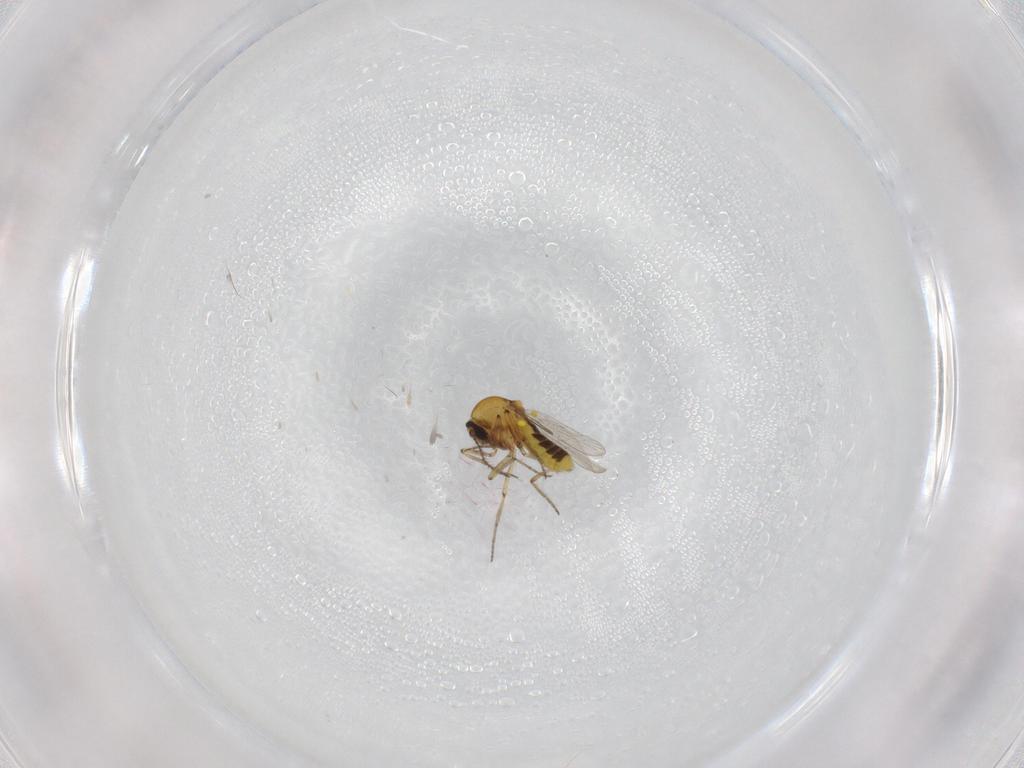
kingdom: Animalia
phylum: Arthropoda
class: Insecta
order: Diptera
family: Ceratopogonidae
